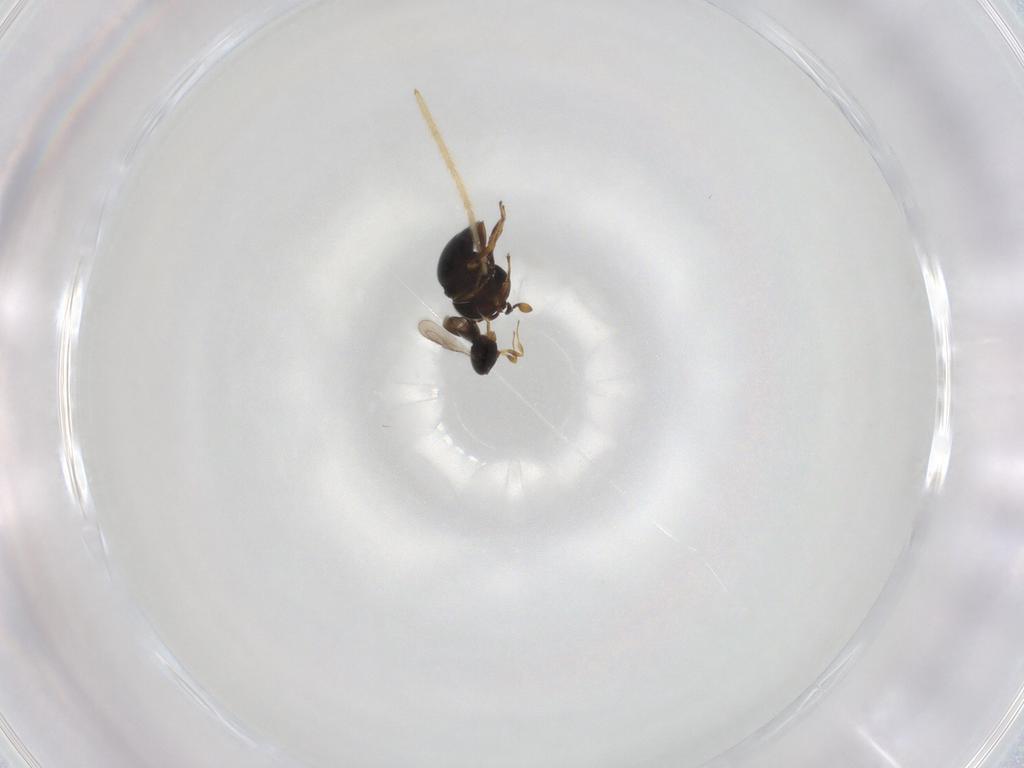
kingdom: Animalia
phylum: Arthropoda
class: Insecta
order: Hymenoptera
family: Scelionidae
